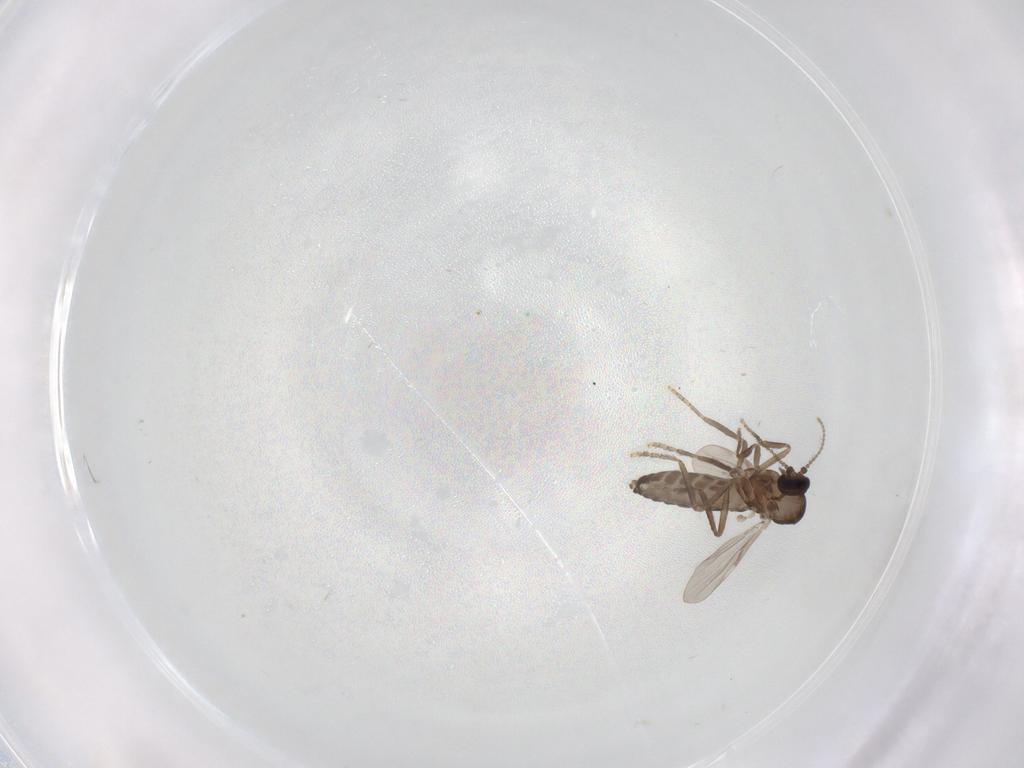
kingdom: Animalia
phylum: Arthropoda
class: Insecta
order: Diptera
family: Ceratopogonidae
